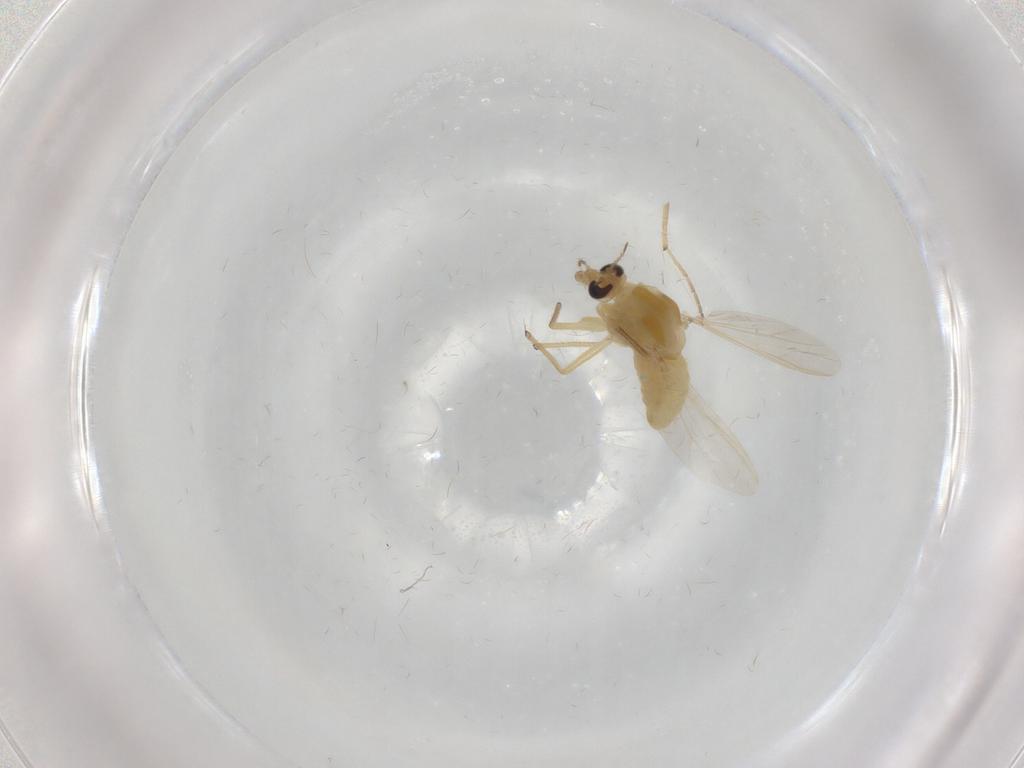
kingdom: Animalia
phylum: Arthropoda
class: Insecta
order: Diptera
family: Chironomidae
